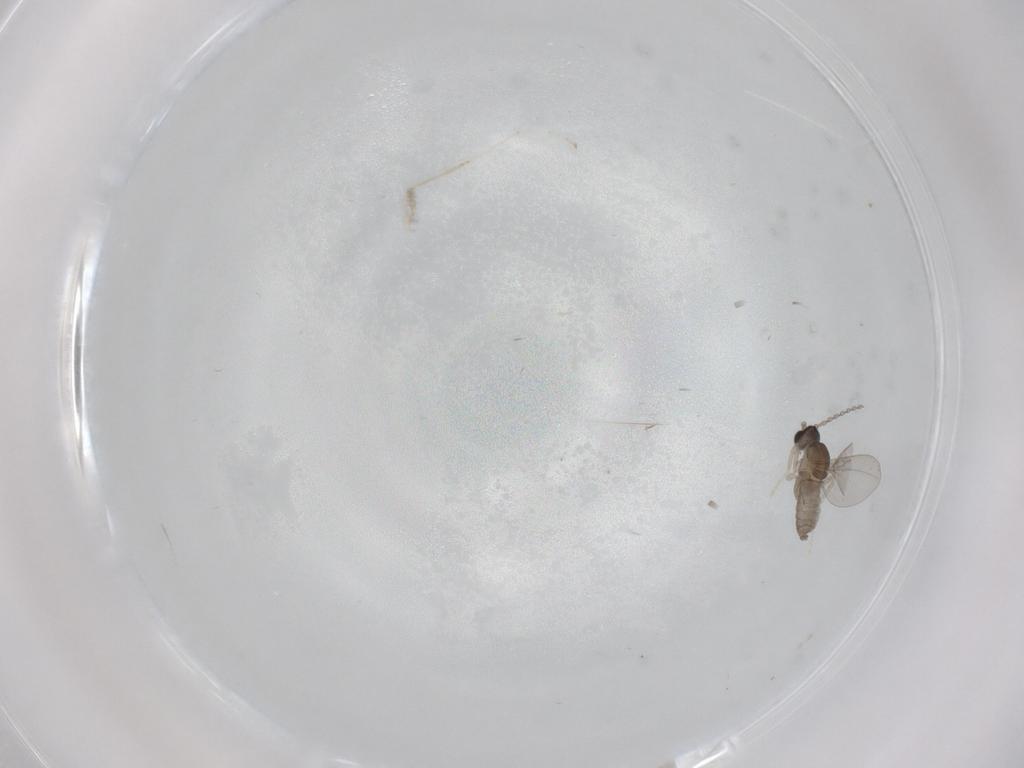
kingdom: Animalia
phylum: Arthropoda
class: Insecta
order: Diptera
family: Cecidomyiidae
